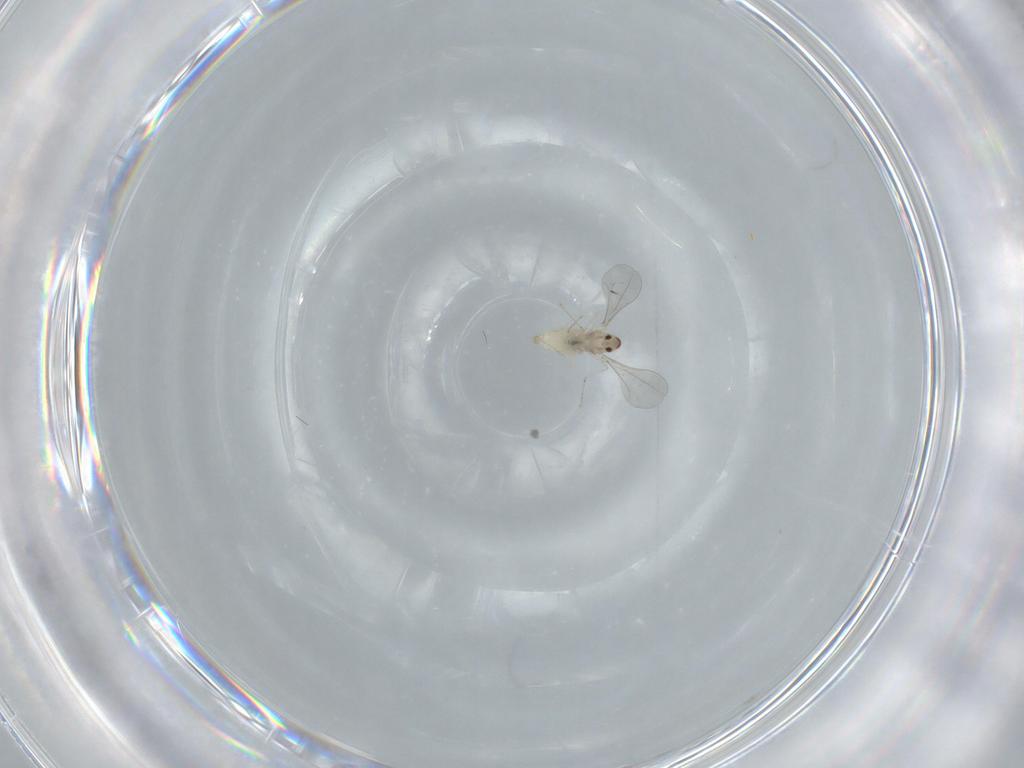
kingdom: Animalia
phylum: Arthropoda
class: Insecta
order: Diptera
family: Cecidomyiidae
